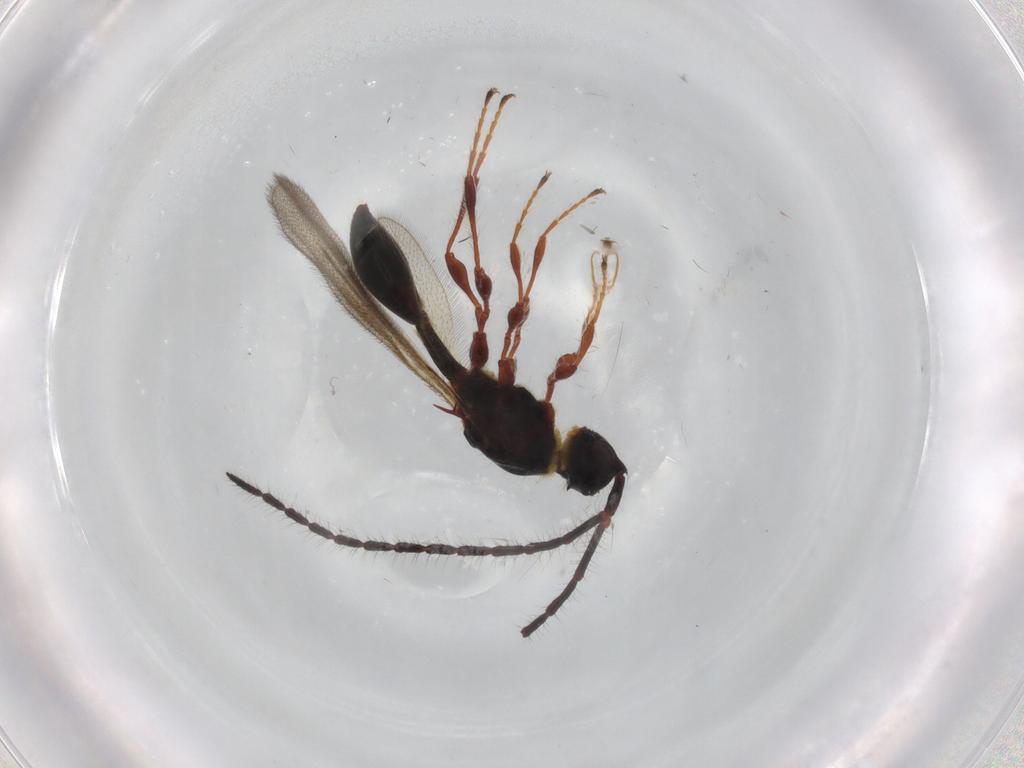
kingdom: Animalia
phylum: Arthropoda
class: Insecta
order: Hymenoptera
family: Diapriidae
